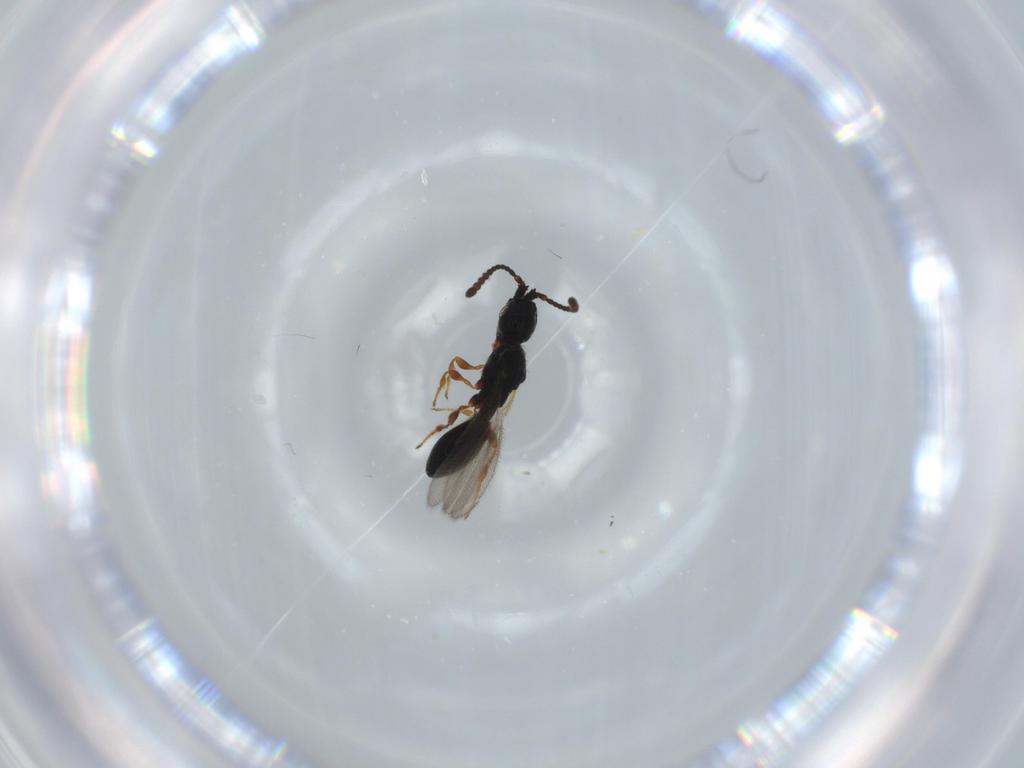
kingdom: Animalia
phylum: Arthropoda
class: Insecta
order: Hymenoptera
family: Diapriidae
